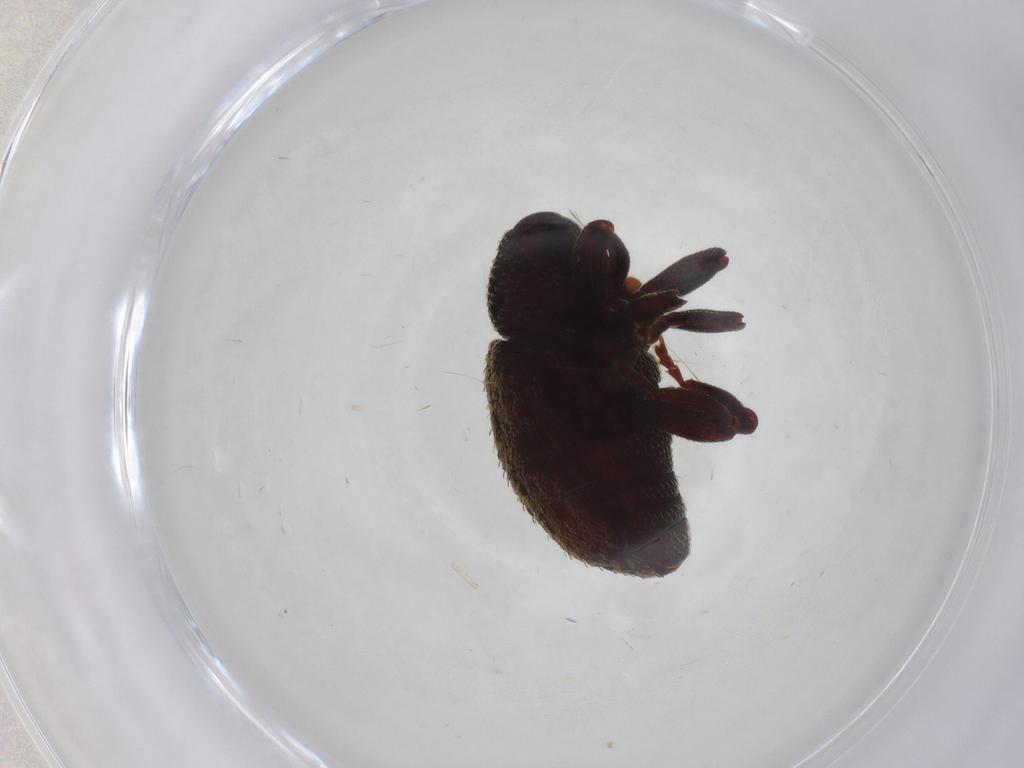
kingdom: Animalia
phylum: Arthropoda
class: Insecta
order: Coleoptera
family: Curculionidae
